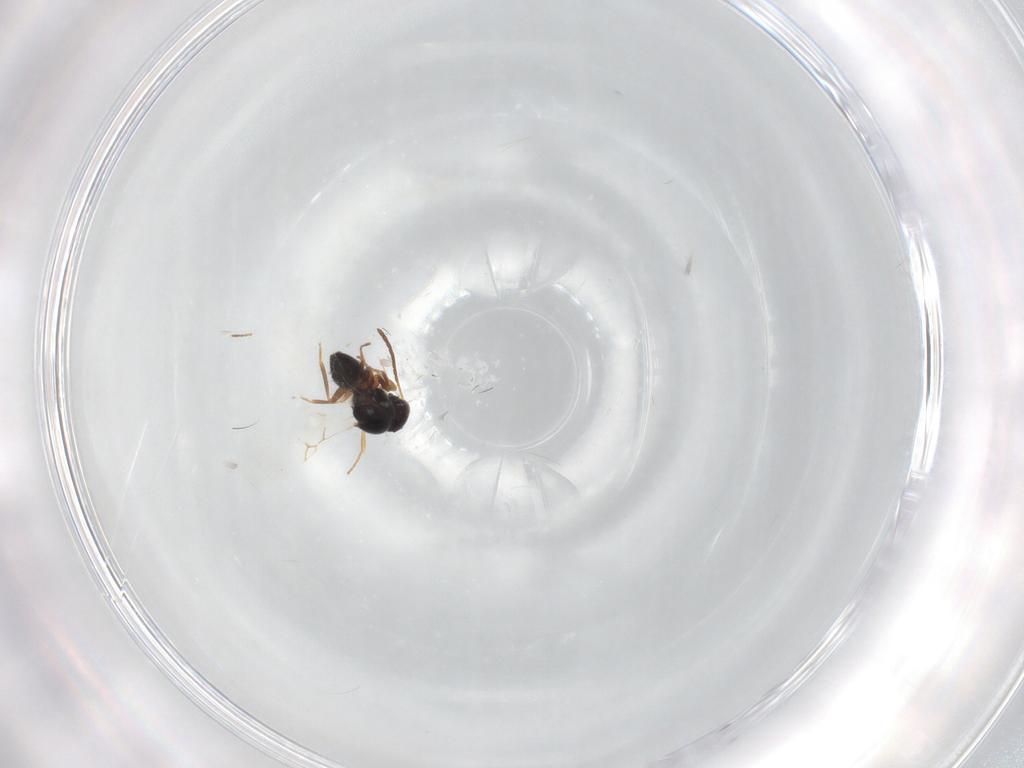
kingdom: Animalia
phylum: Arthropoda
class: Insecta
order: Hymenoptera
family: Figitidae
